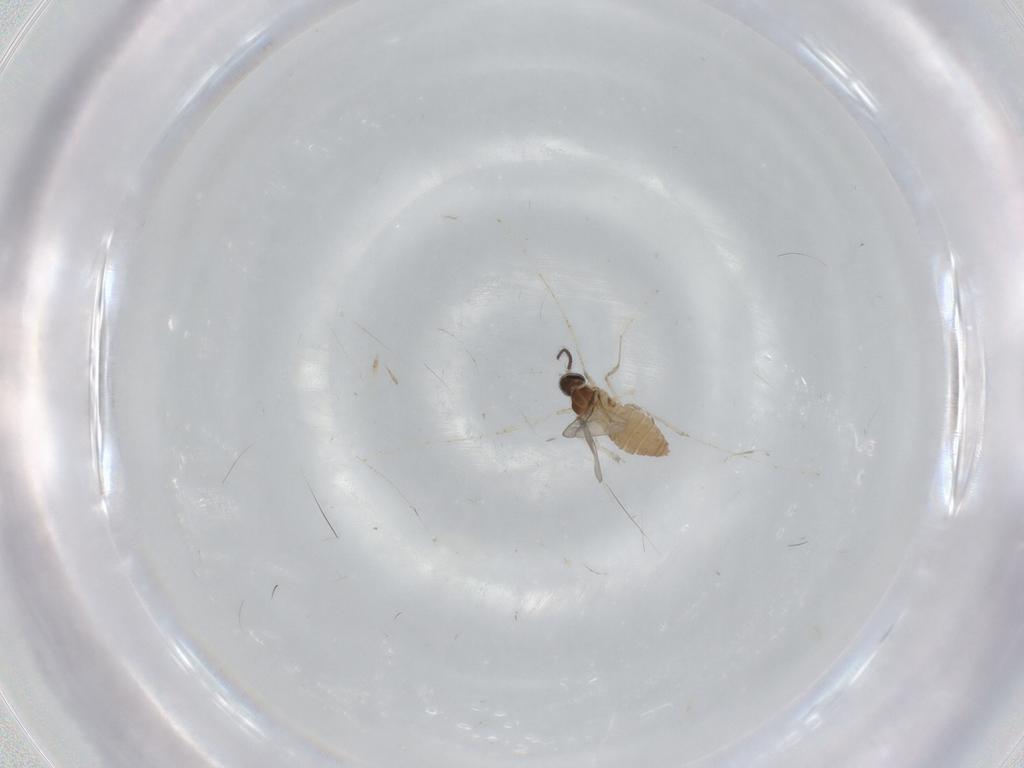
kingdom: Animalia
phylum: Arthropoda
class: Insecta
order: Diptera
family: Cecidomyiidae
